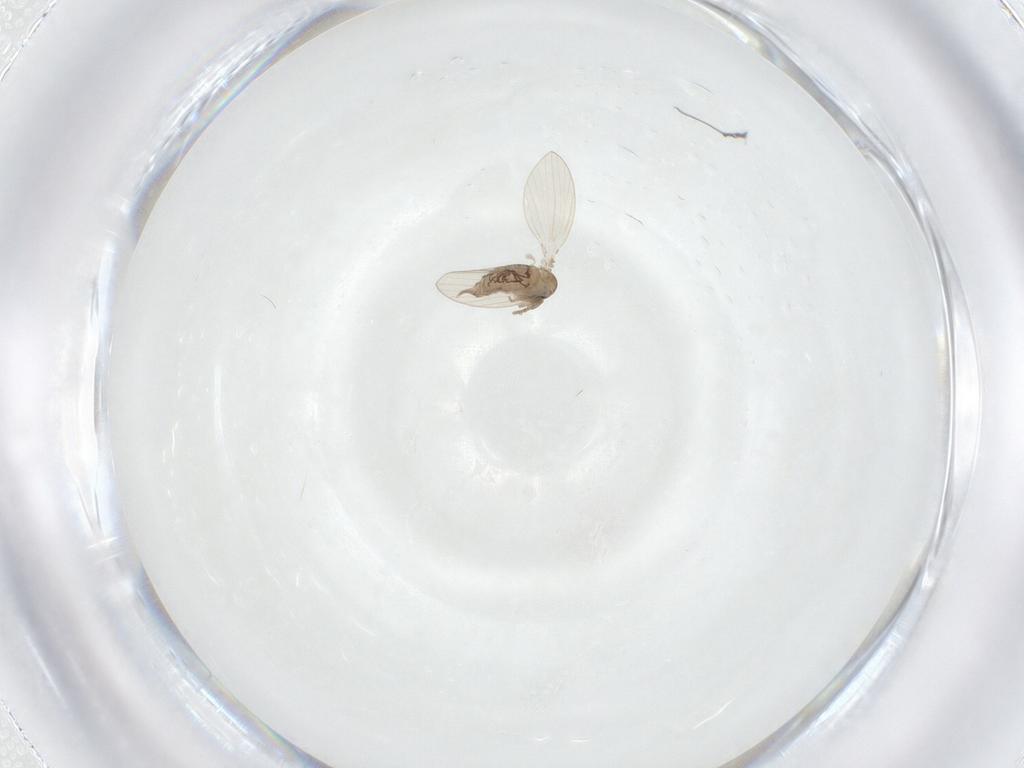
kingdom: Animalia
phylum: Arthropoda
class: Insecta
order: Diptera
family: Psychodidae
